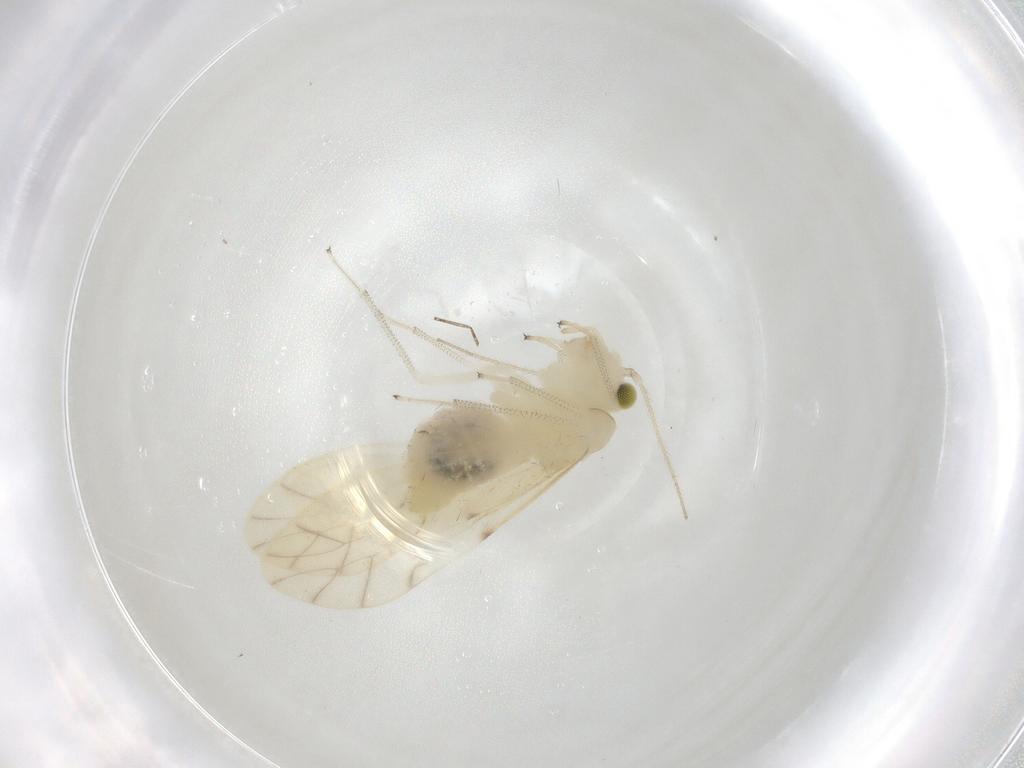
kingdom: Animalia
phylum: Arthropoda
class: Insecta
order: Psocodea
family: Caeciliusidae
